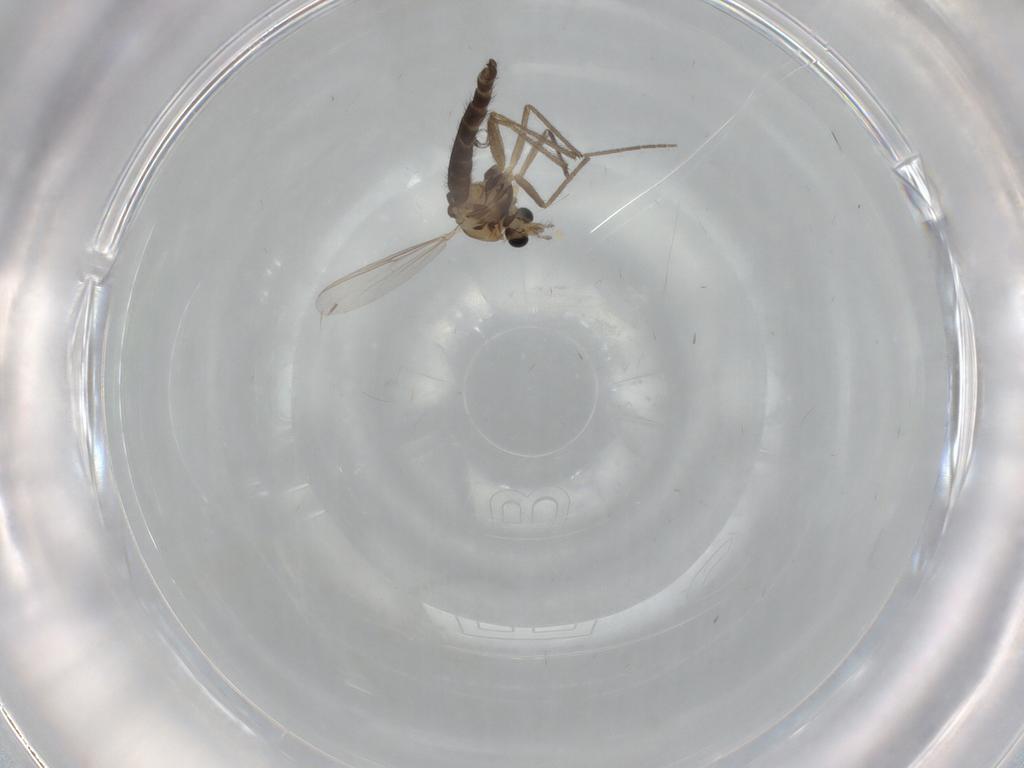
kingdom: Animalia
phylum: Arthropoda
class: Insecta
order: Diptera
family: Chironomidae
